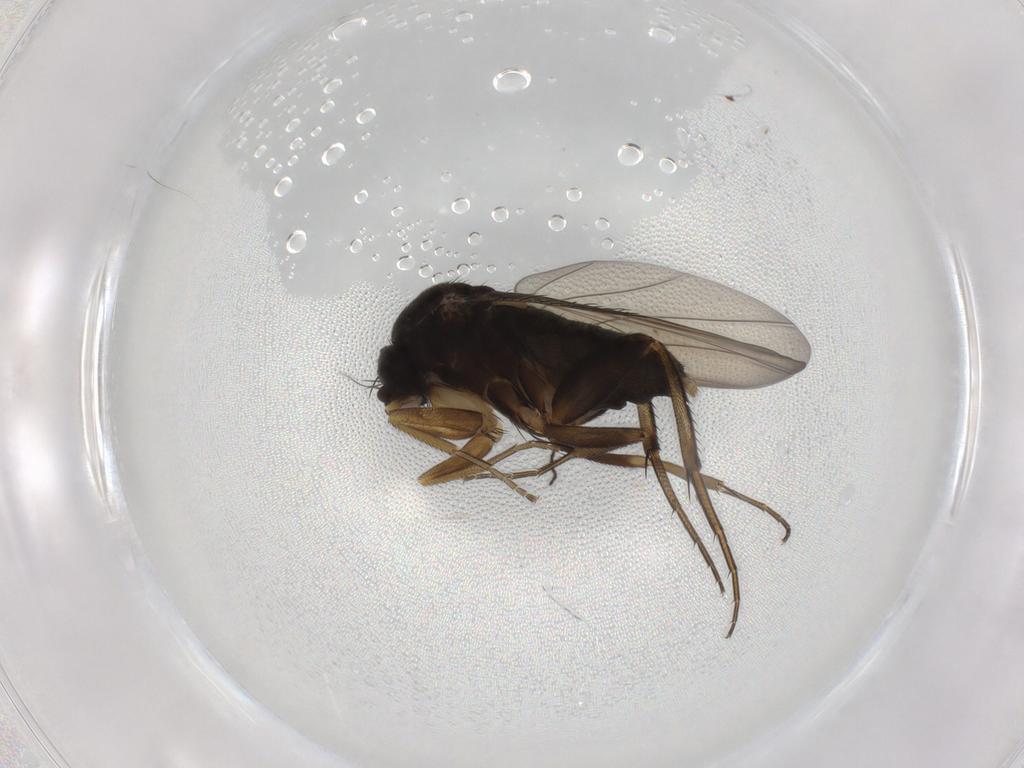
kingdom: Animalia
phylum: Arthropoda
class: Insecta
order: Diptera
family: Phoridae
